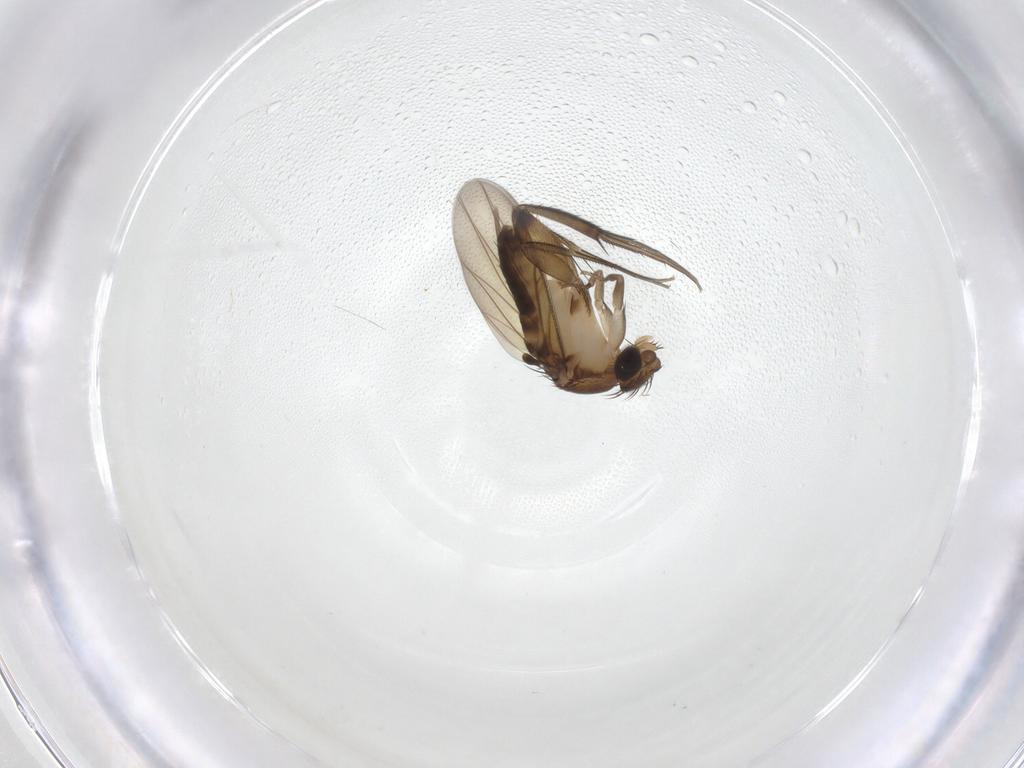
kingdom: Animalia
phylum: Arthropoda
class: Insecta
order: Diptera
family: Phoridae
